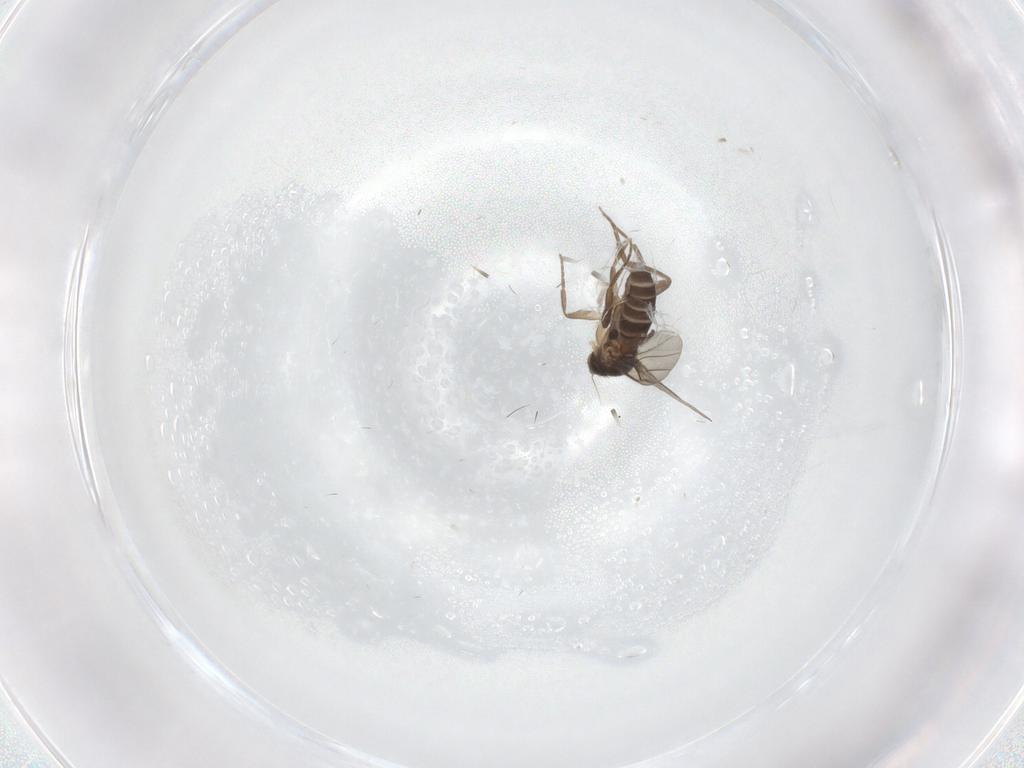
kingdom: Animalia
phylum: Arthropoda
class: Insecta
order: Diptera
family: Phoridae
